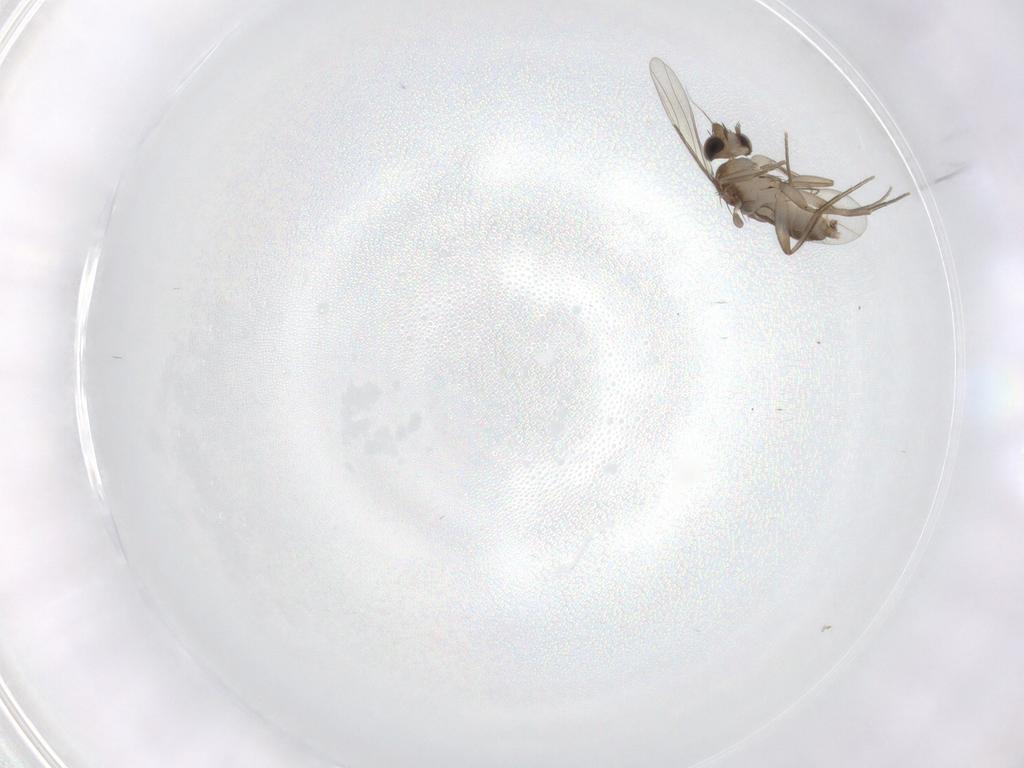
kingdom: Animalia
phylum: Arthropoda
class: Insecta
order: Diptera
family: Phoridae
